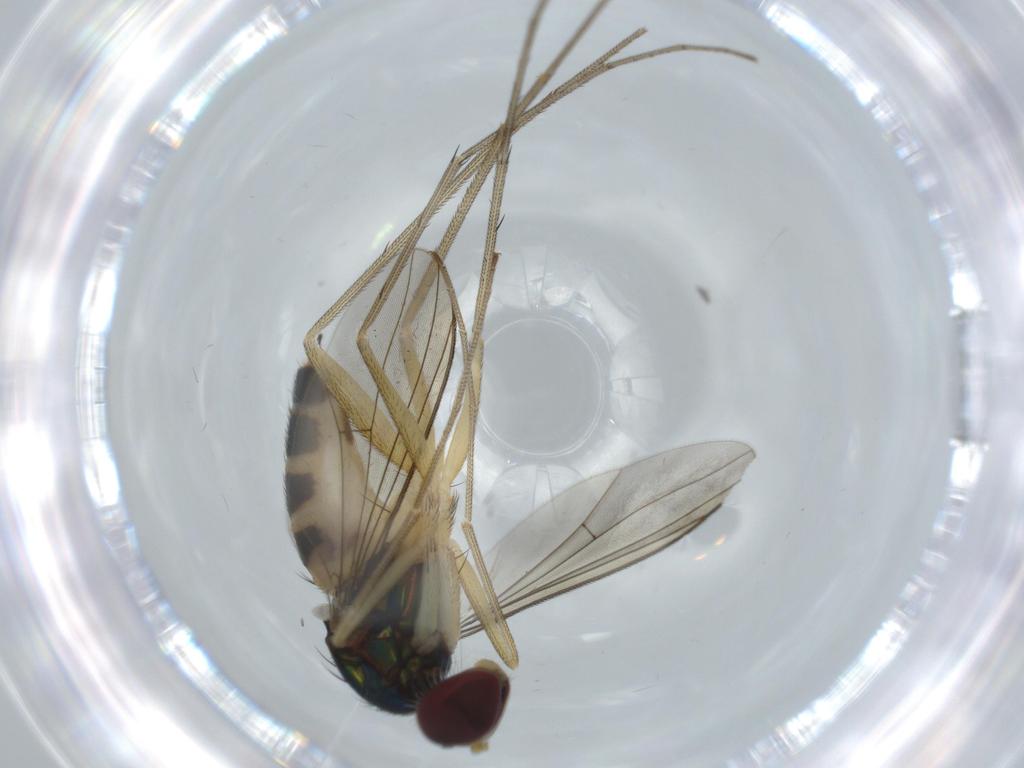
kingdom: Animalia
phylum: Arthropoda
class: Insecta
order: Diptera
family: Dolichopodidae
